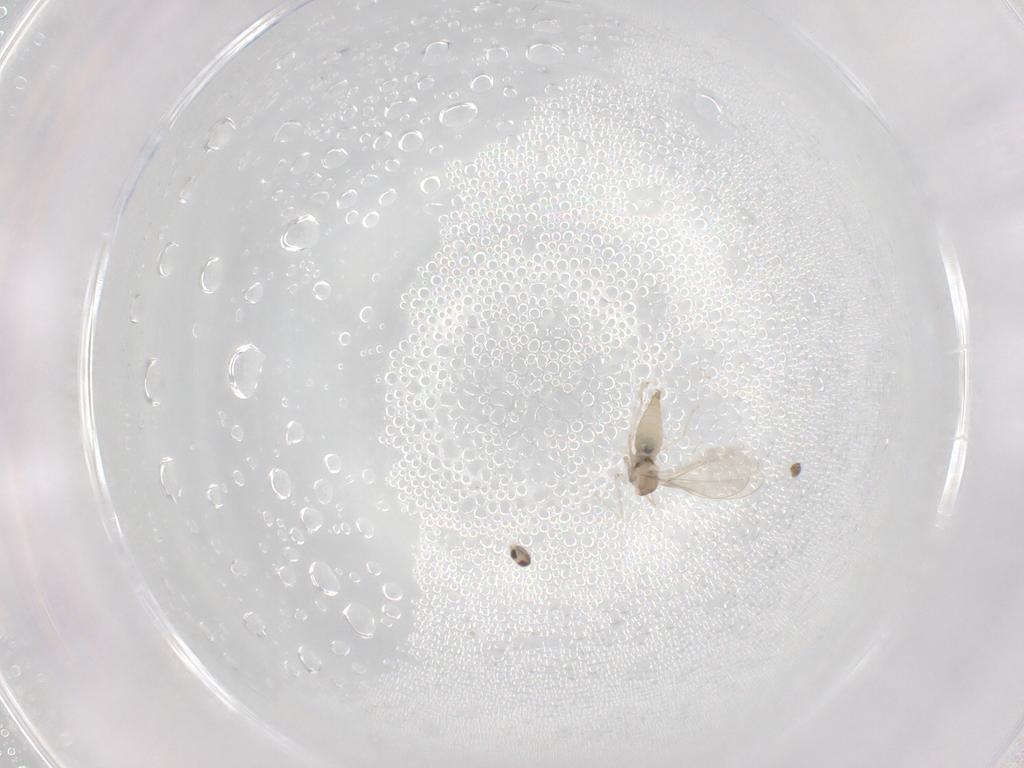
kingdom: Animalia
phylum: Arthropoda
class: Insecta
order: Diptera
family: Cecidomyiidae
